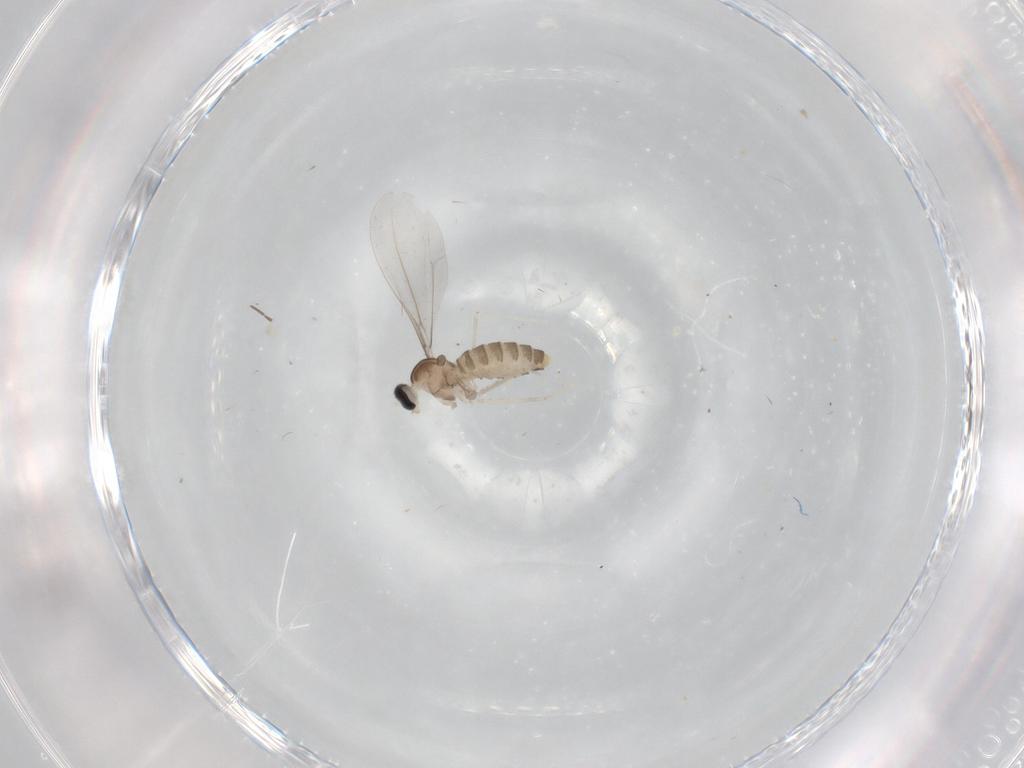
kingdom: Animalia
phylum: Arthropoda
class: Insecta
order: Diptera
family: Cecidomyiidae
